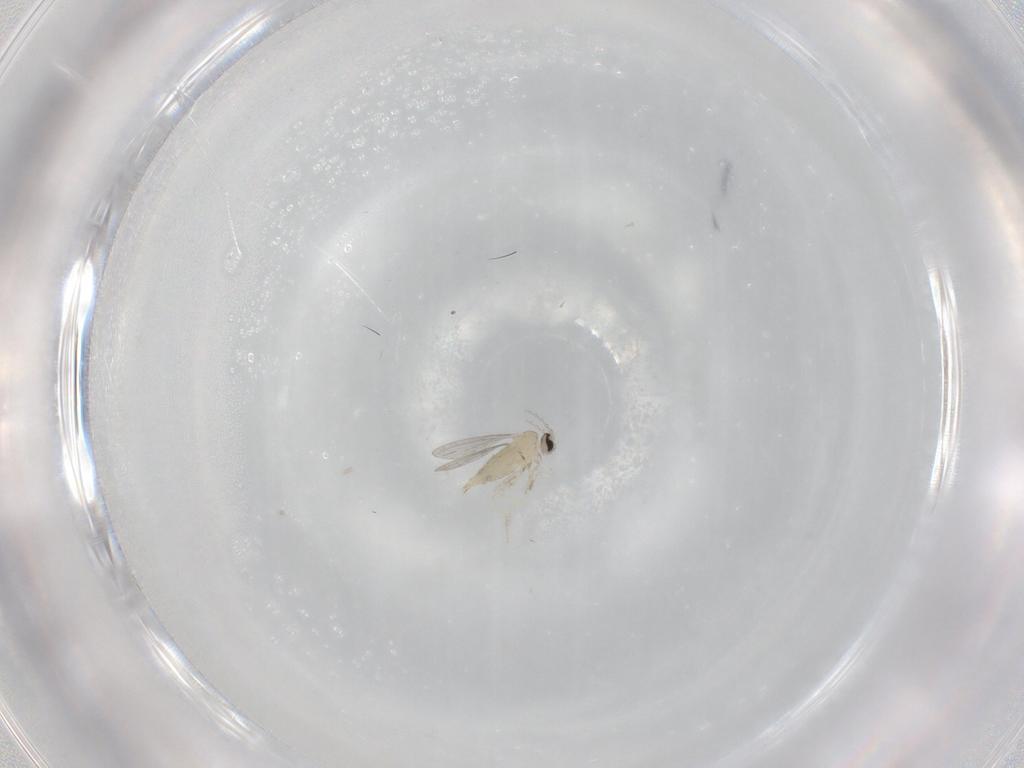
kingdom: Animalia
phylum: Arthropoda
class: Insecta
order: Diptera
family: Cecidomyiidae
